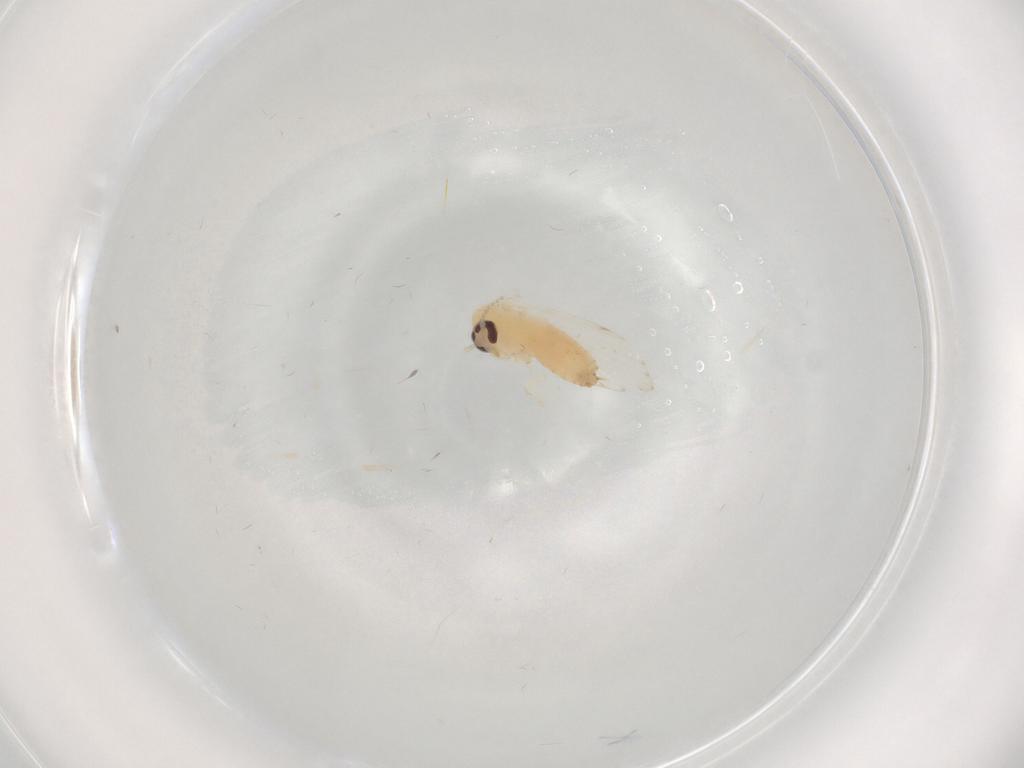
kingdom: Animalia
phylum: Arthropoda
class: Insecta
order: Diptera
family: Psychodidae
